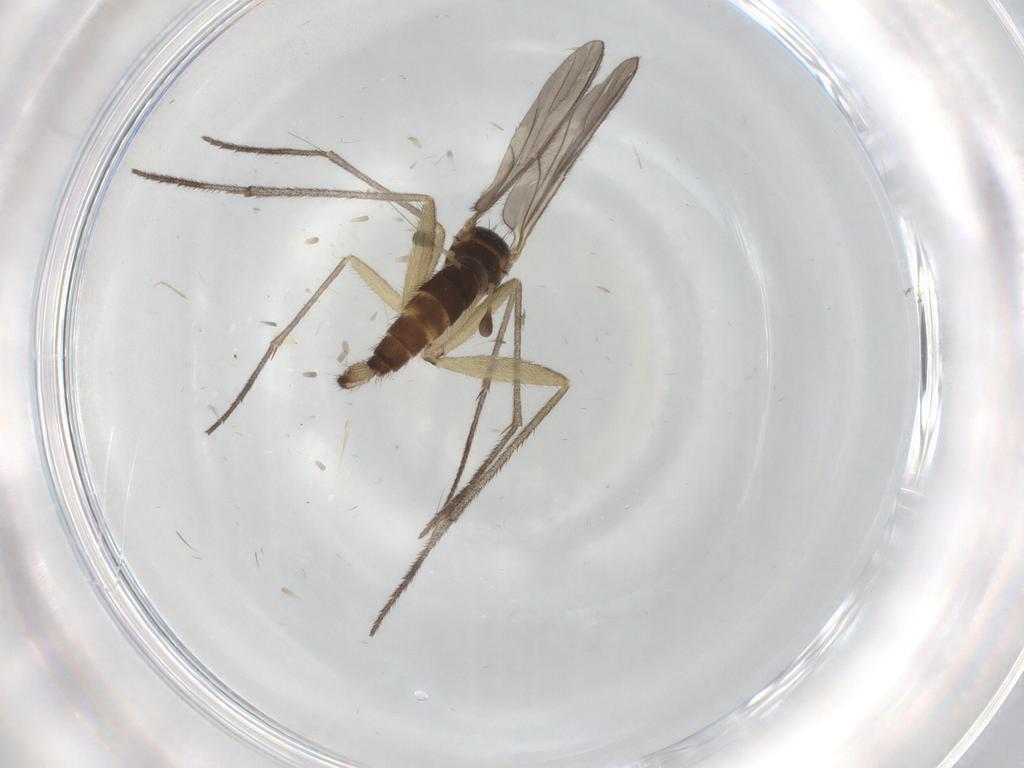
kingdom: Animalia
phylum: Arthropoda
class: Insecta
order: Diptera
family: Sciaridae
